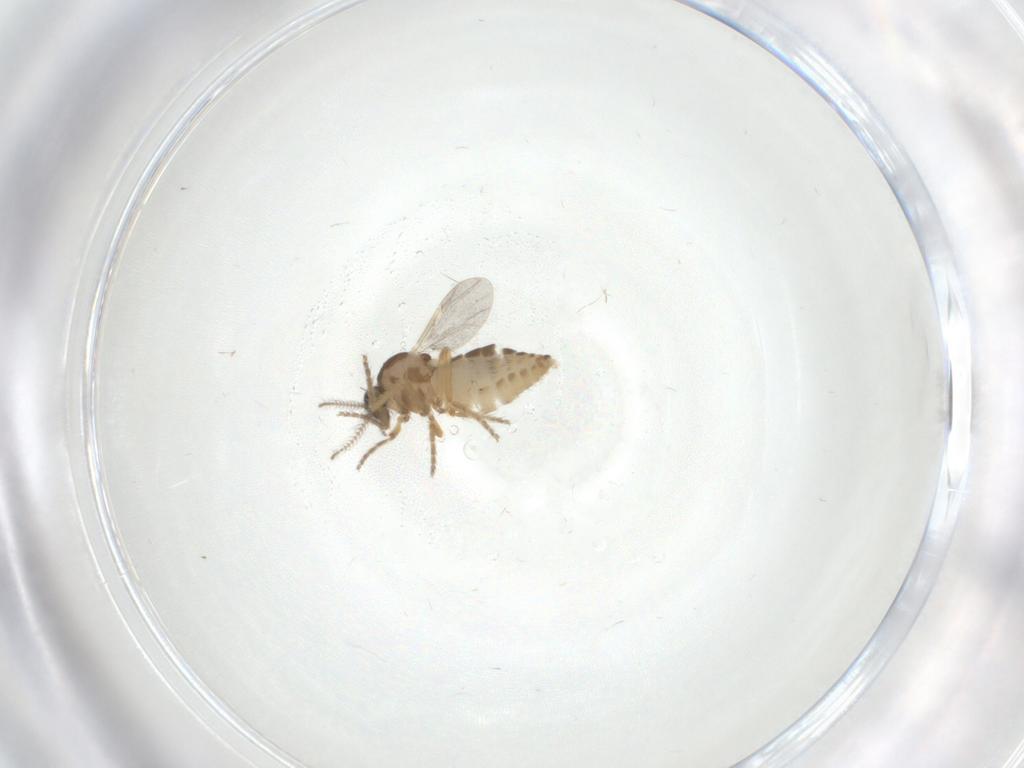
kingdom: Animalia
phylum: Arthropoda
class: Insecta
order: Diptera
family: Ceratopogonidae
